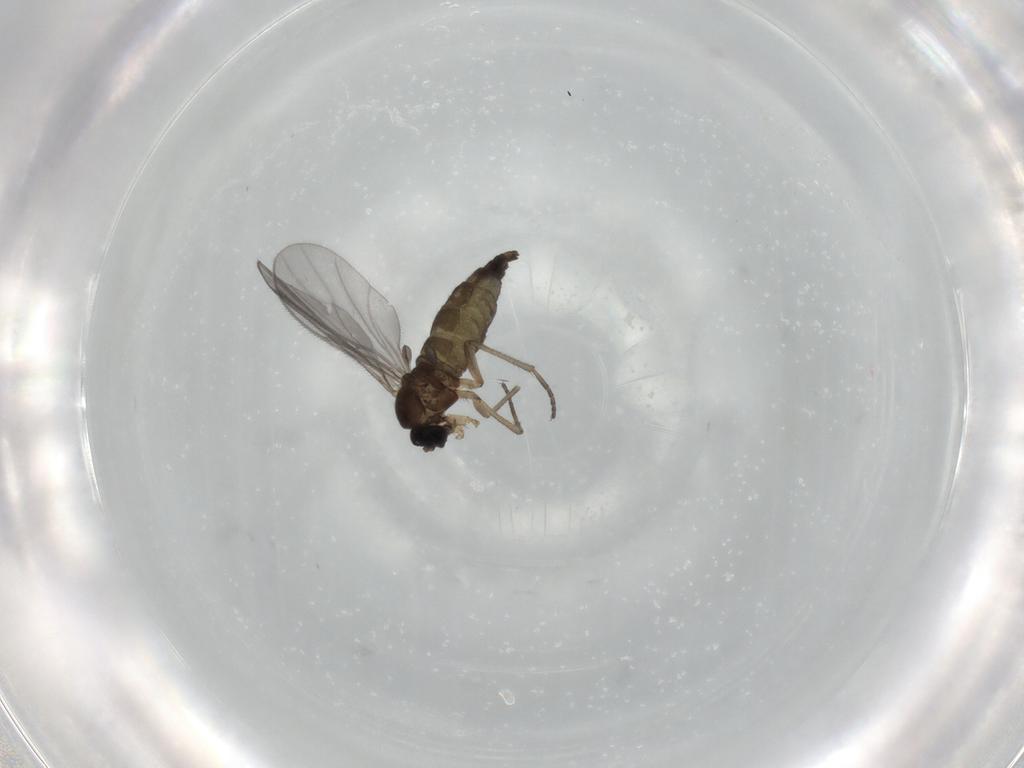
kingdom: Animalia
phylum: Arthropoda
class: Insecta
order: Diptera
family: Sciaridae
